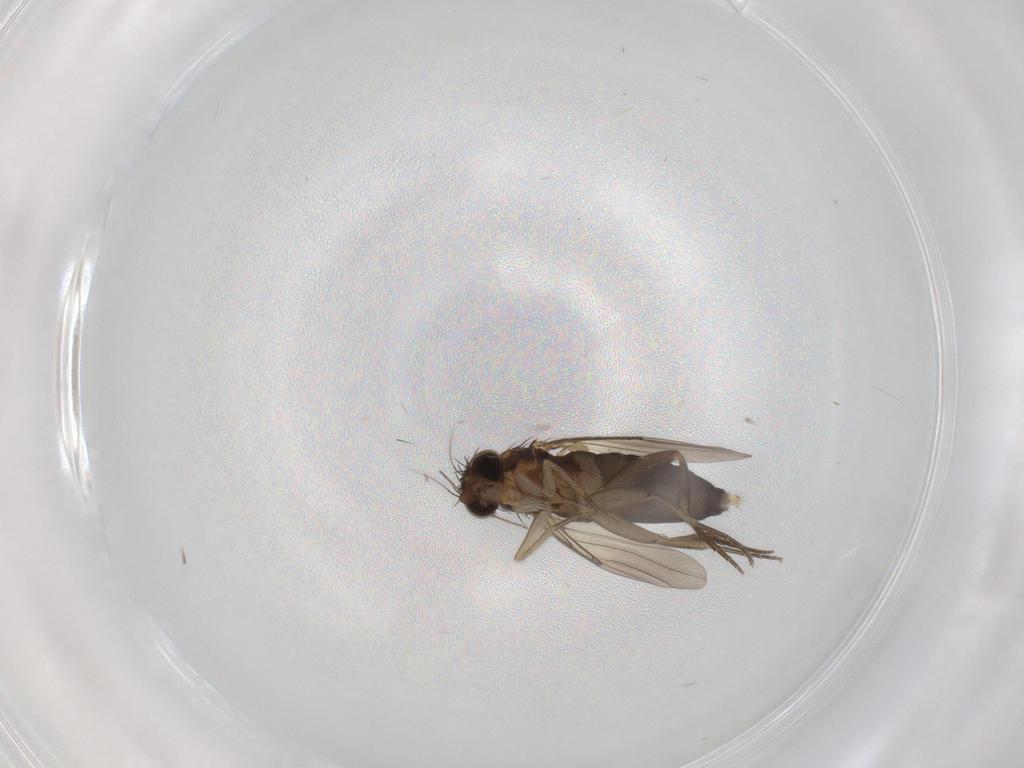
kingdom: Animalia
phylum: Arthropoda
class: Insecta
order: Diptera
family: Phoridae
